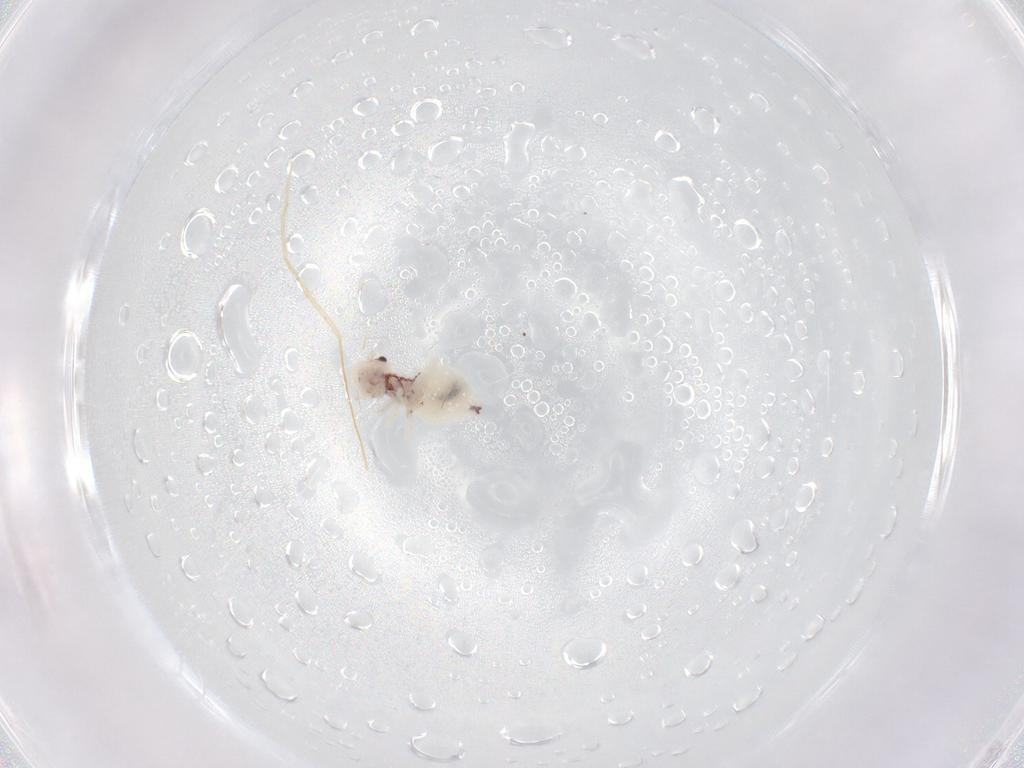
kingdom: Animalia
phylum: Arthropoda
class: Insecta
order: Psocodea
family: Amphipsocidae
